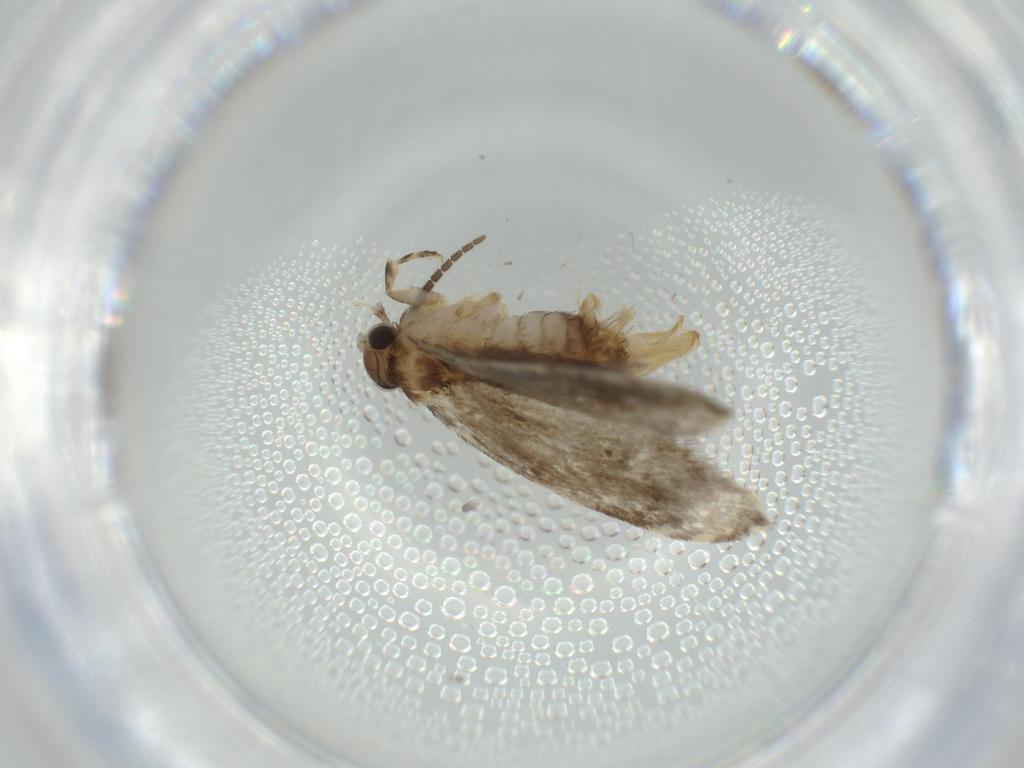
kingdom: Animalia
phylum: Arthropoda
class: Insecta
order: Lepidoptera
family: Tineidae
